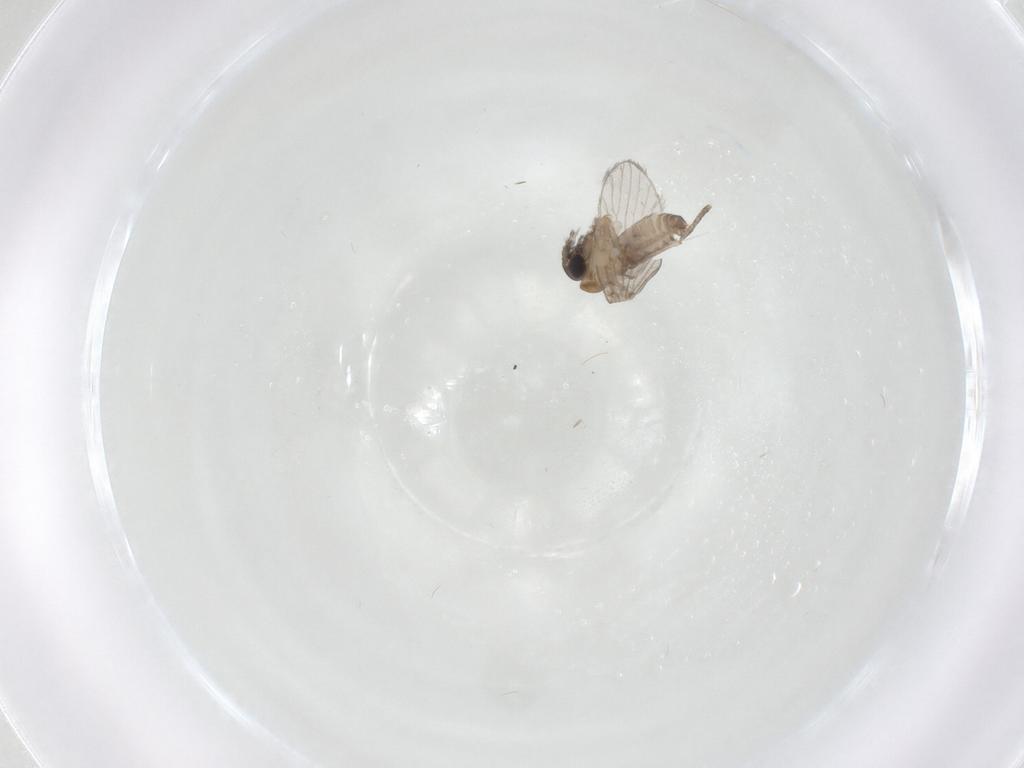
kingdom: Animalia
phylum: Arthropoda
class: Insecta
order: Diptera
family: Psychodidae
